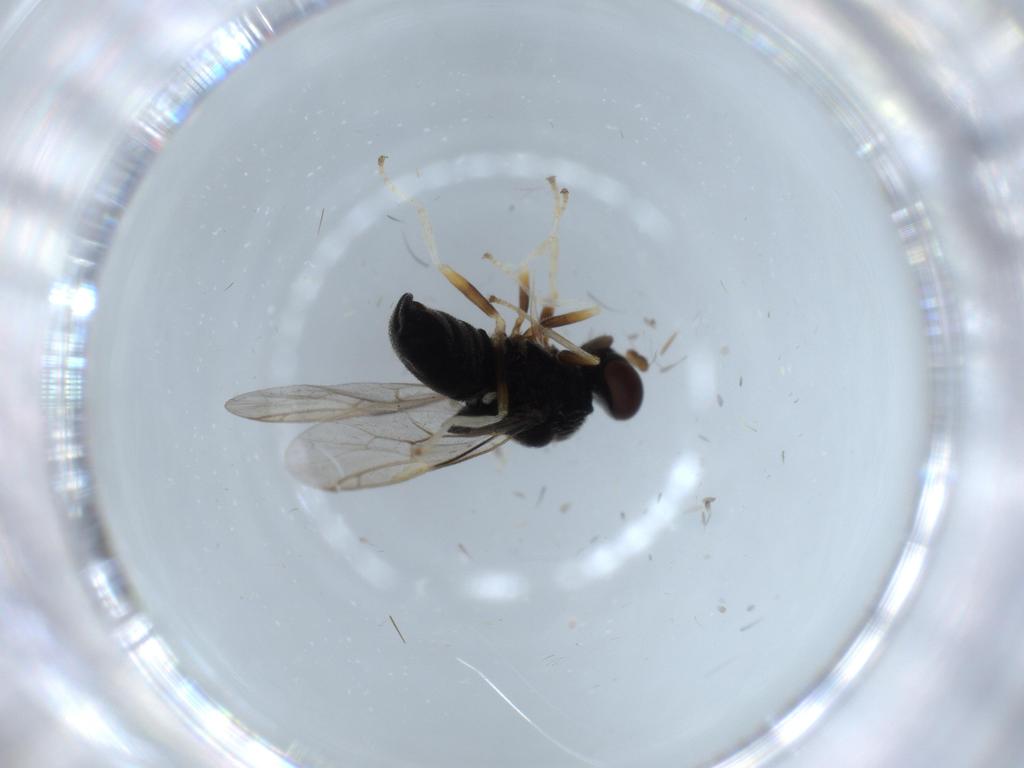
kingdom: Animalia
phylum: Arthropoda
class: Insecta
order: Diptera
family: Stratiomyidae
